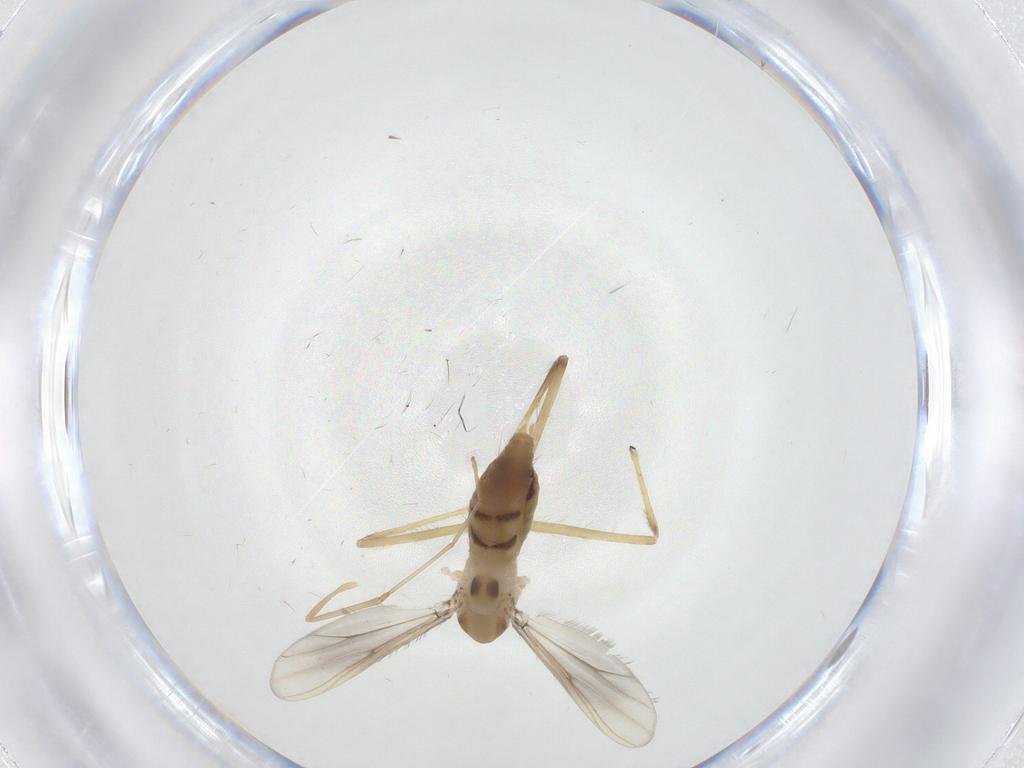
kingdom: Animalia
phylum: Arthropoda
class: Insecta
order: Diptera
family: Chironomidae
